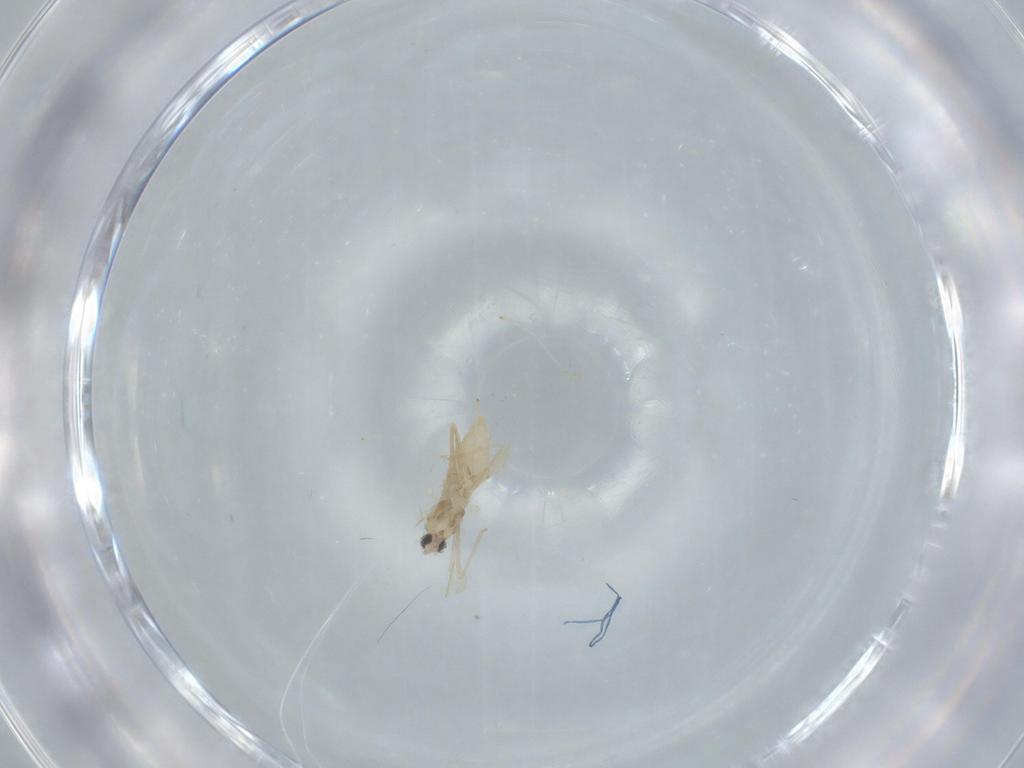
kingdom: Animalia
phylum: Arthropoda
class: Insecta
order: Diptera
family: Cecidomyiidae
